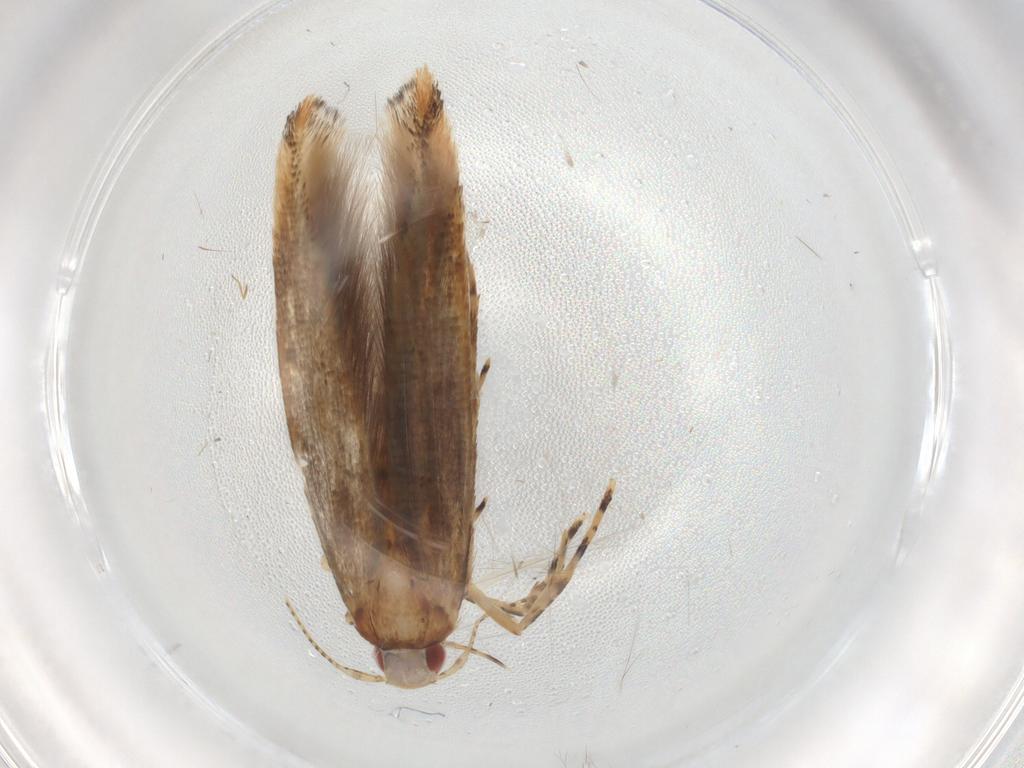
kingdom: Animalia
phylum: Arthropoda
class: Insecta
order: Lepidoptera
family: Cosmopterigidae
